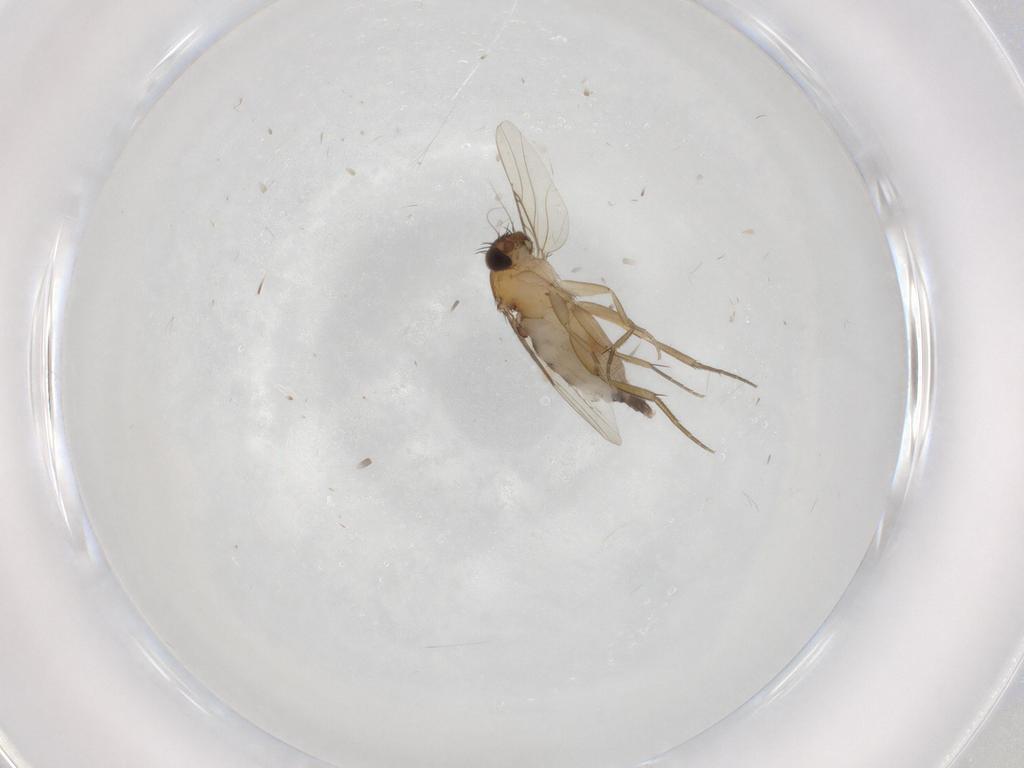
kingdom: Animalia
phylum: Arthropoda
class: Insecta
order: Diptera
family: Phoridae
